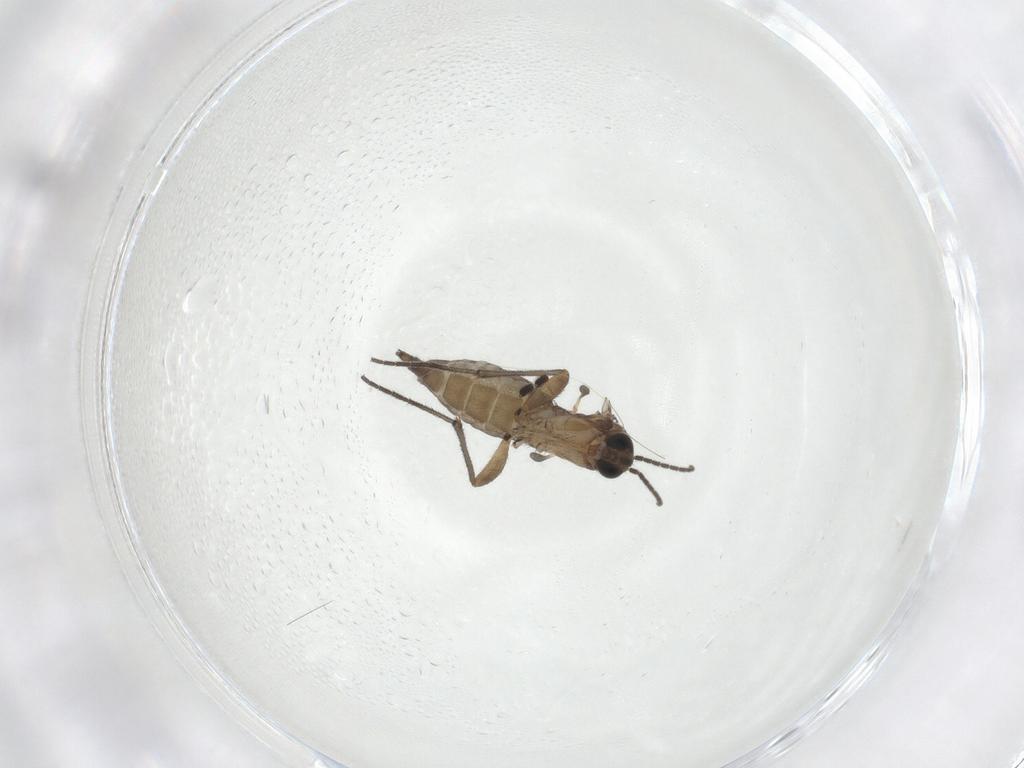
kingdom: Animalia
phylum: Arthropoda
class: Insecta
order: Diptera
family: Sciaridae
